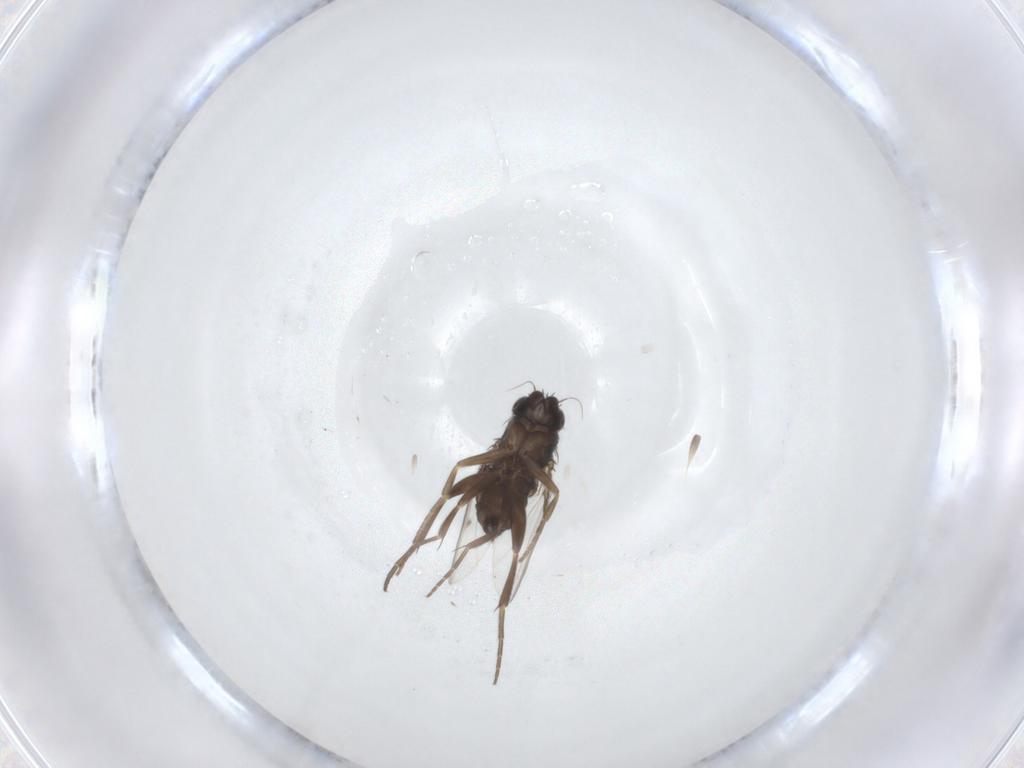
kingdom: Animalia
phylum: Arthropoda
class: Insecta
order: Diptera
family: Phoridae
